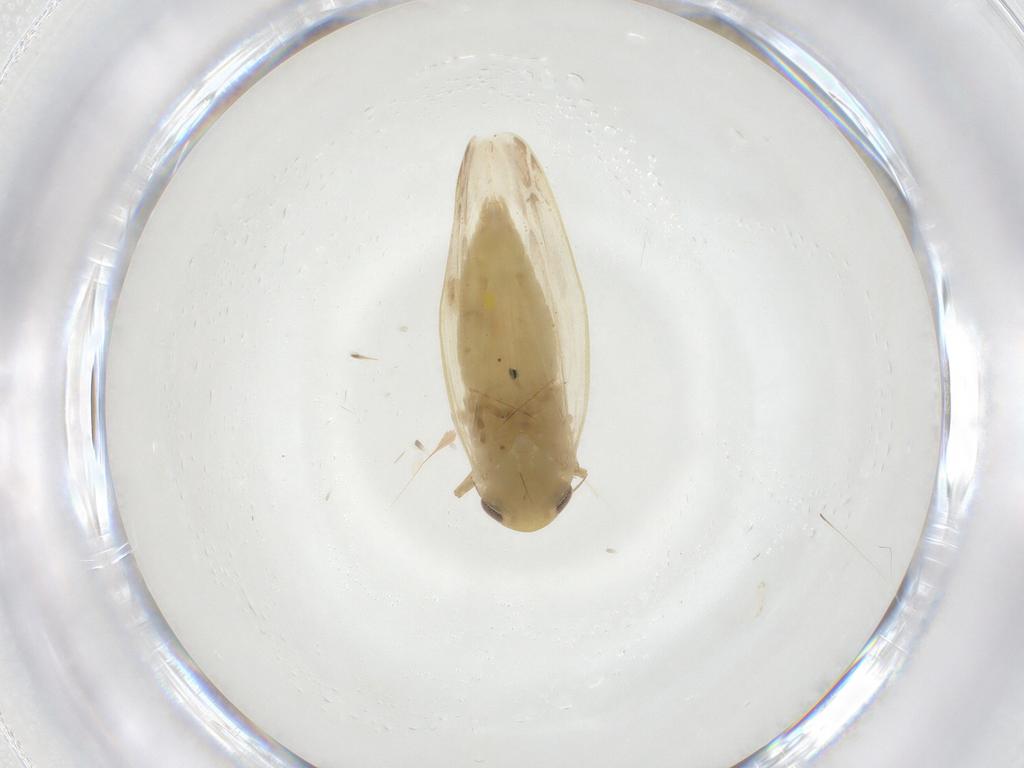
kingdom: Animalia
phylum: Arthropoda
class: Insecta
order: Hemiptera
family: Cicadellidae
